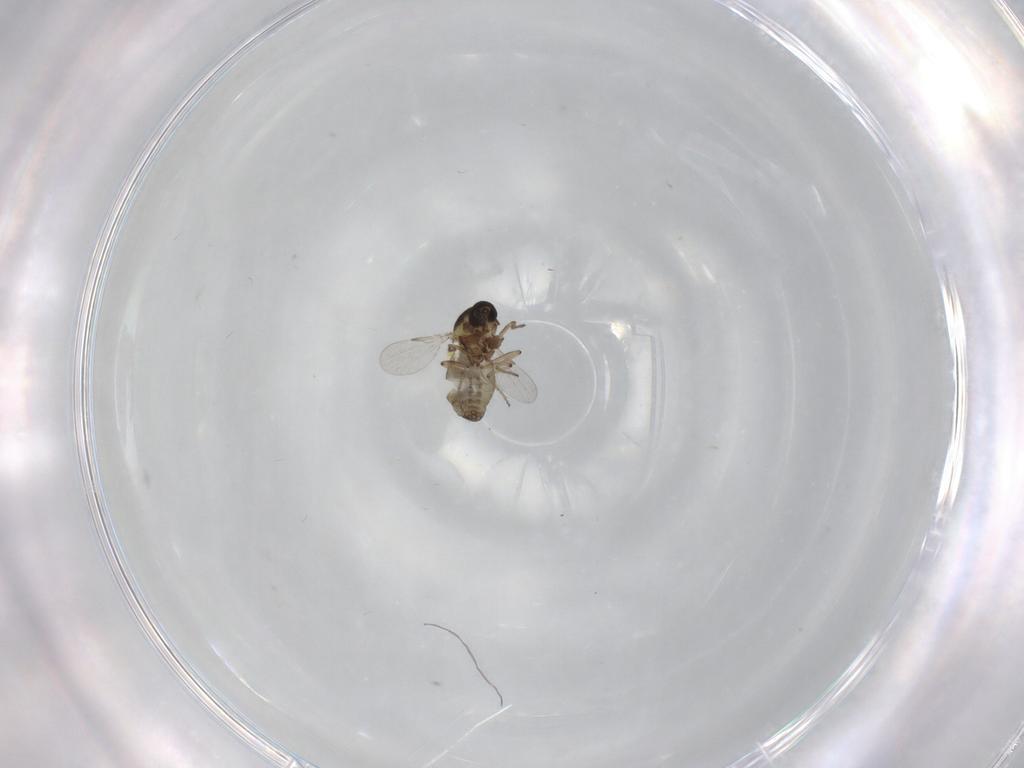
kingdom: Animalia
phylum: Arthropoda
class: Insecta
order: Diptera
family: Ceratopogonidae
